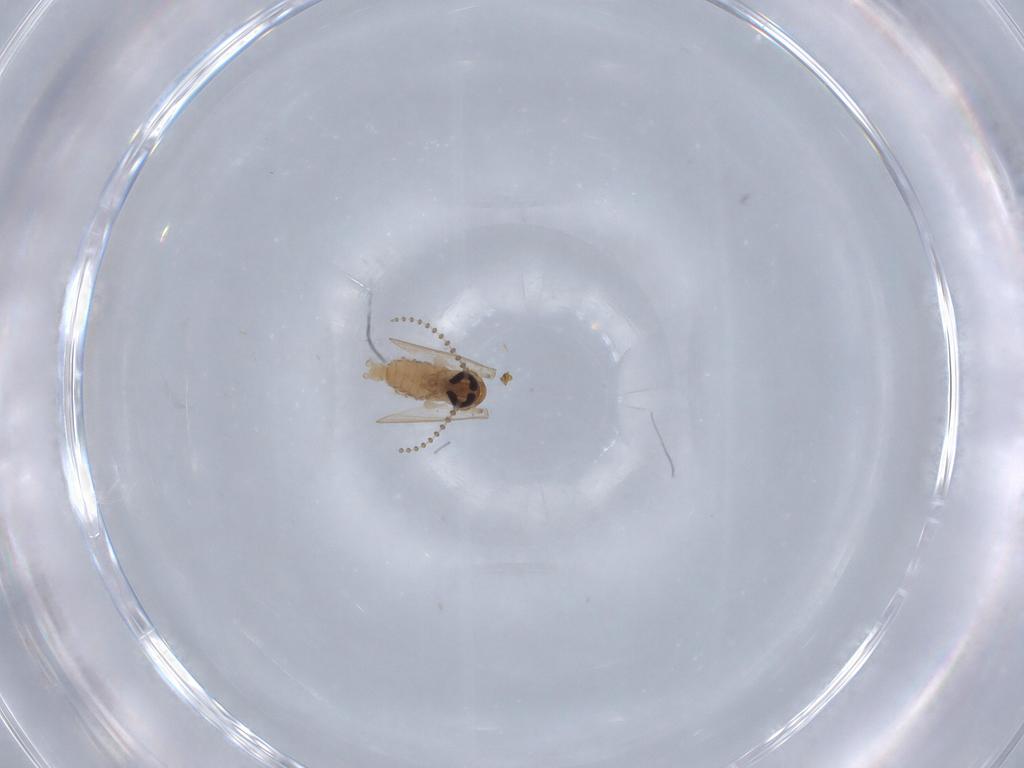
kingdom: Animalia
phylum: Arthropoda
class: Insecta
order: Diptera
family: Psychodidae
